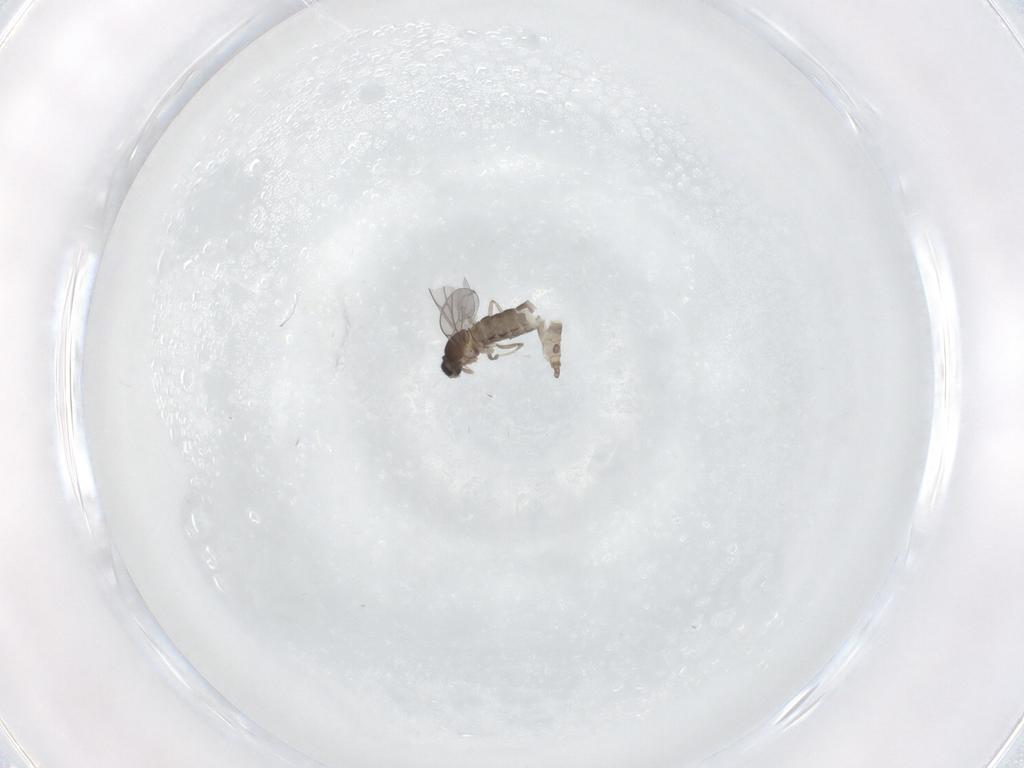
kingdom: Animalia
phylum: Arthropoda
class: Insecta
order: Diptera
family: Cecidomyiidae
